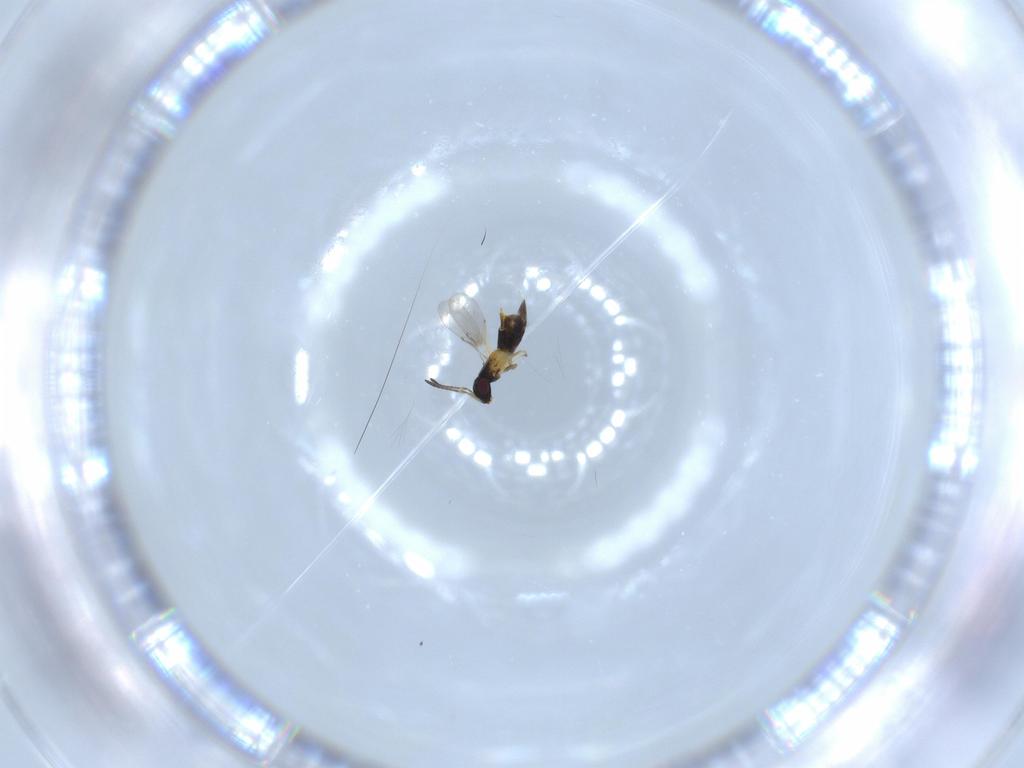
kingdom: Animalia
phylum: Arthropoda
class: Insecta
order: Hymenoptera
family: Encyrtidae
